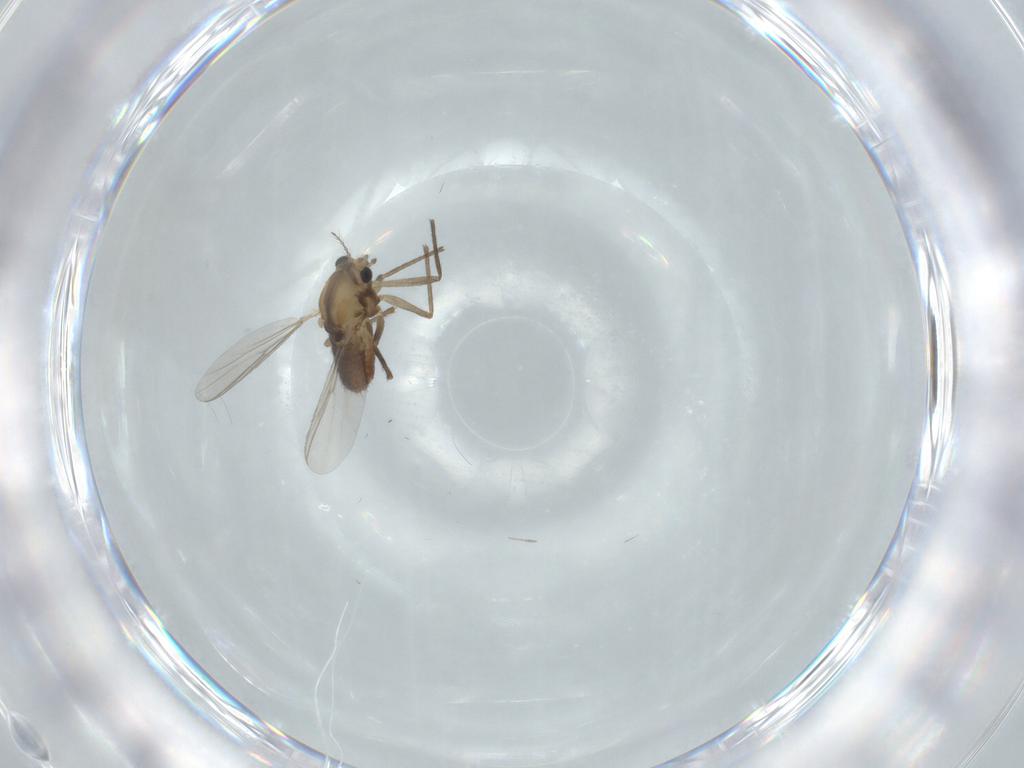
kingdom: Animalia
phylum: Arthropoda
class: Insecta
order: Diptera
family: Chironomidae
